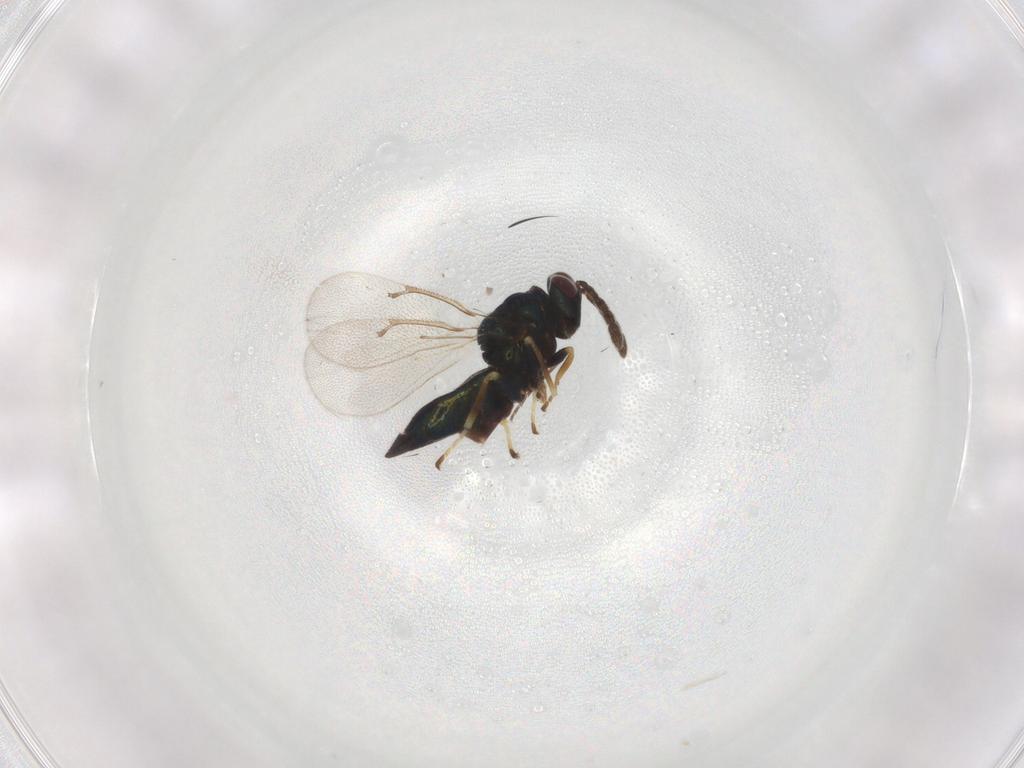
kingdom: Animalia
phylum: Arthropoda
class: Insecta
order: Hymenoptera
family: Eulophidae
